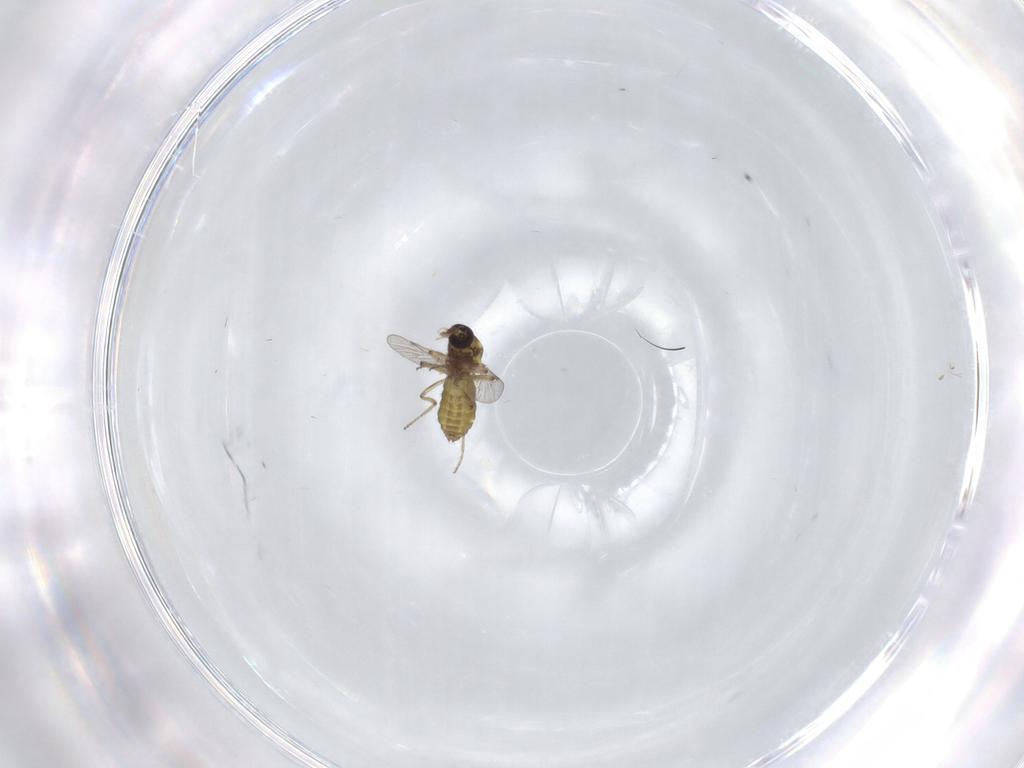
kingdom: Animalia
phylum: Arthropoda
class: Insecta
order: Diptera
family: Ceratopogonidae
